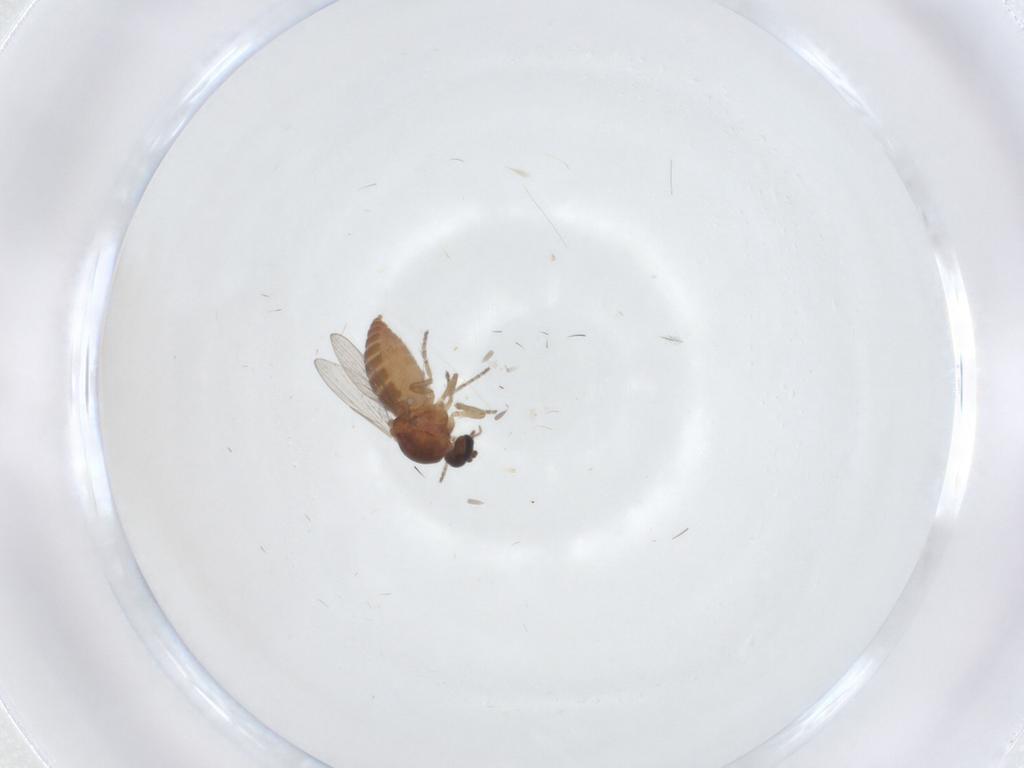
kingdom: Animalia
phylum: Arthropoda
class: Insecta
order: Diptera
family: Ceratopogonidae
